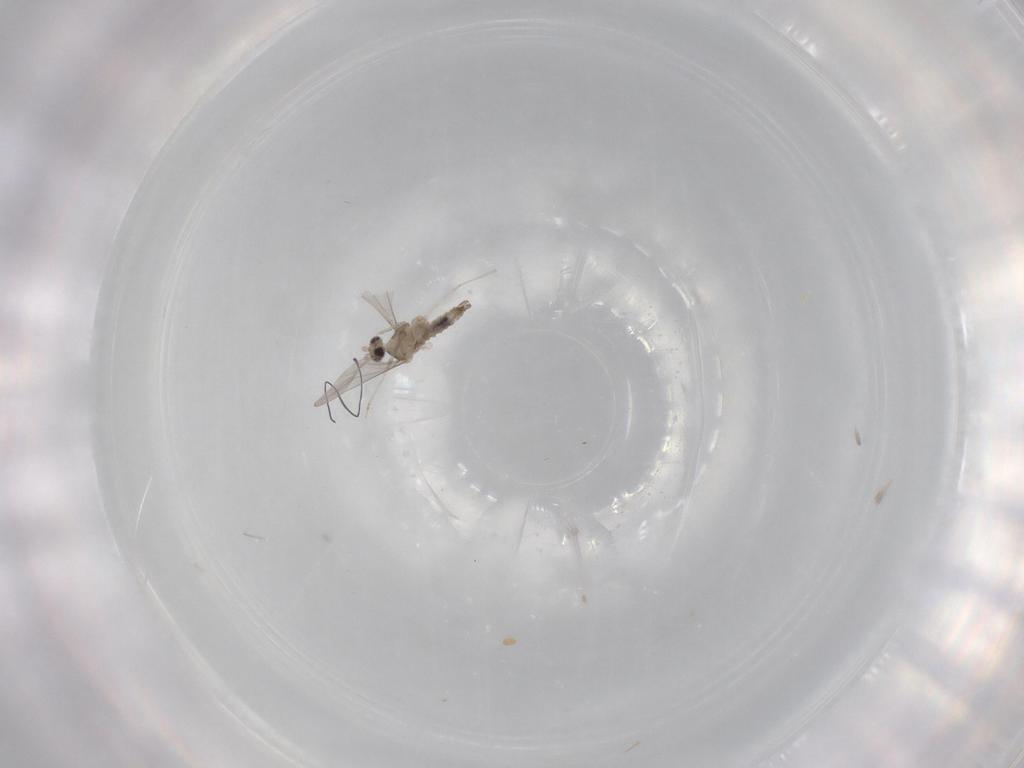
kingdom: Animalia
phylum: Arthropoda
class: Insecta
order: Diptera
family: Cecidomyiidae
